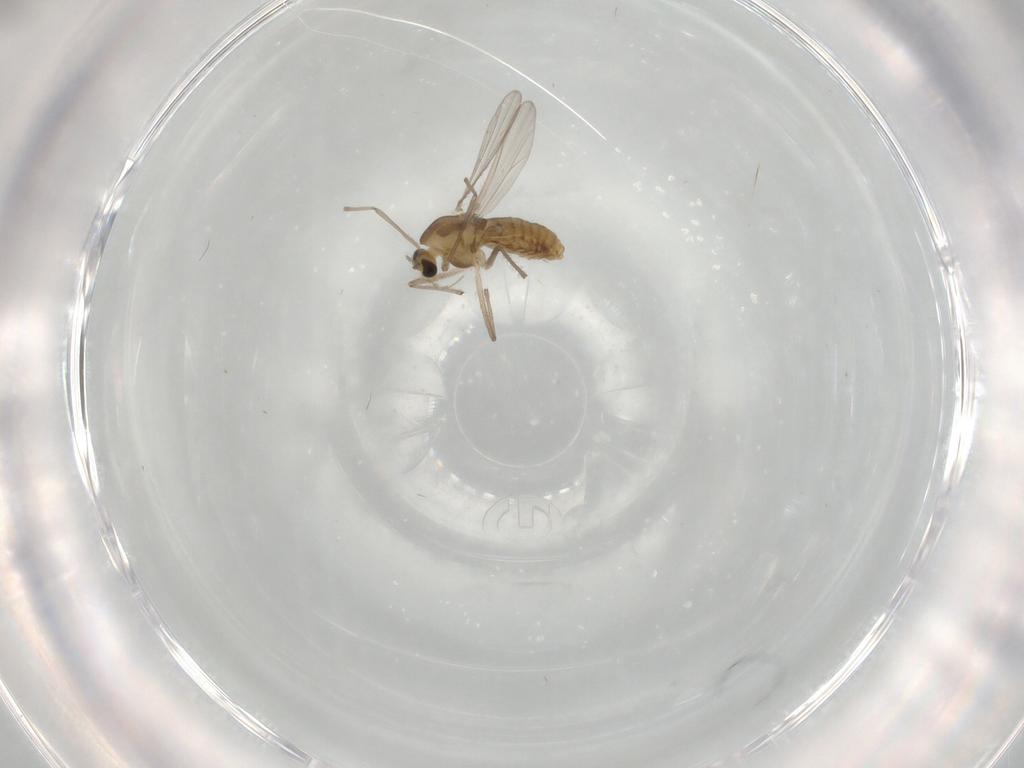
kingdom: Animalia
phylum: Arthropoda
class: Insecta
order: Diptera
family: Chironomidae
